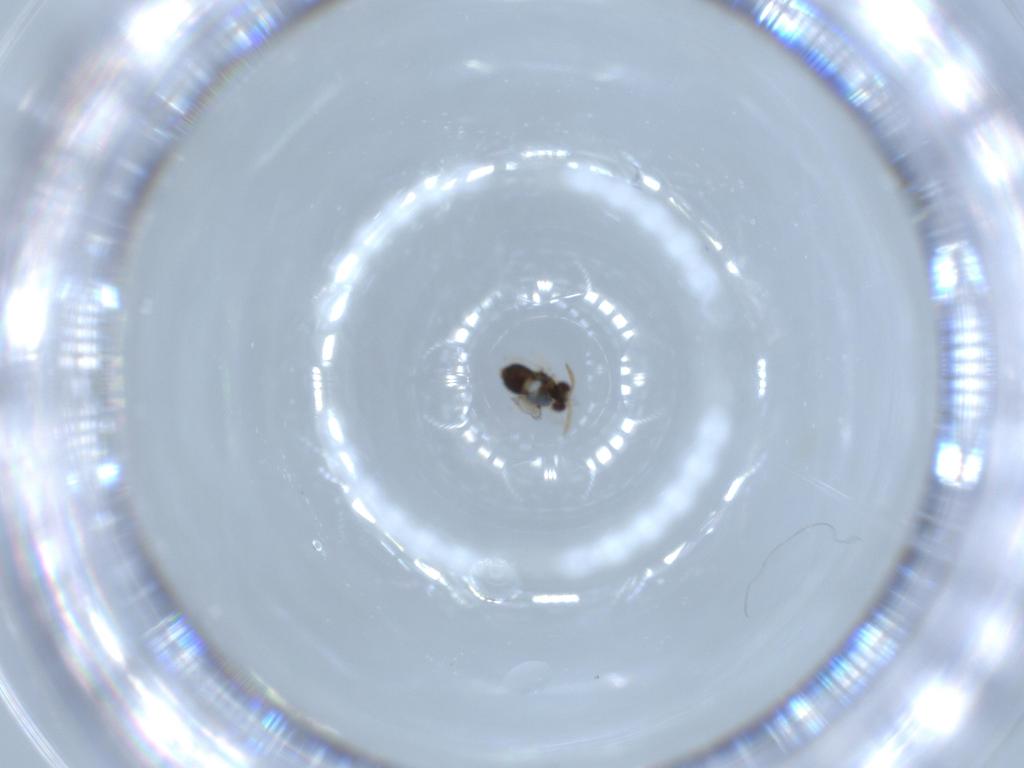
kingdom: Animalia
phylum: Arthropoda
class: Insecta
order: Hymenoptera
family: Aphelinidae
